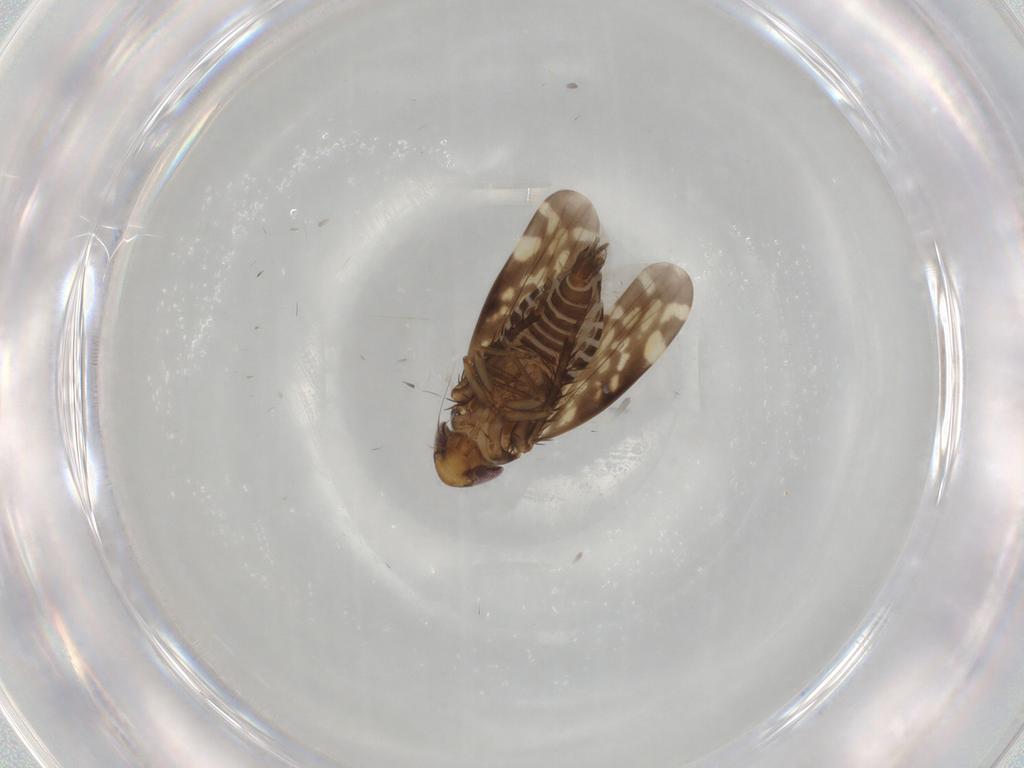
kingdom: Animalia
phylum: Arthropoda
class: Insecta
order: Hemiptera
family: Cicadellidae
